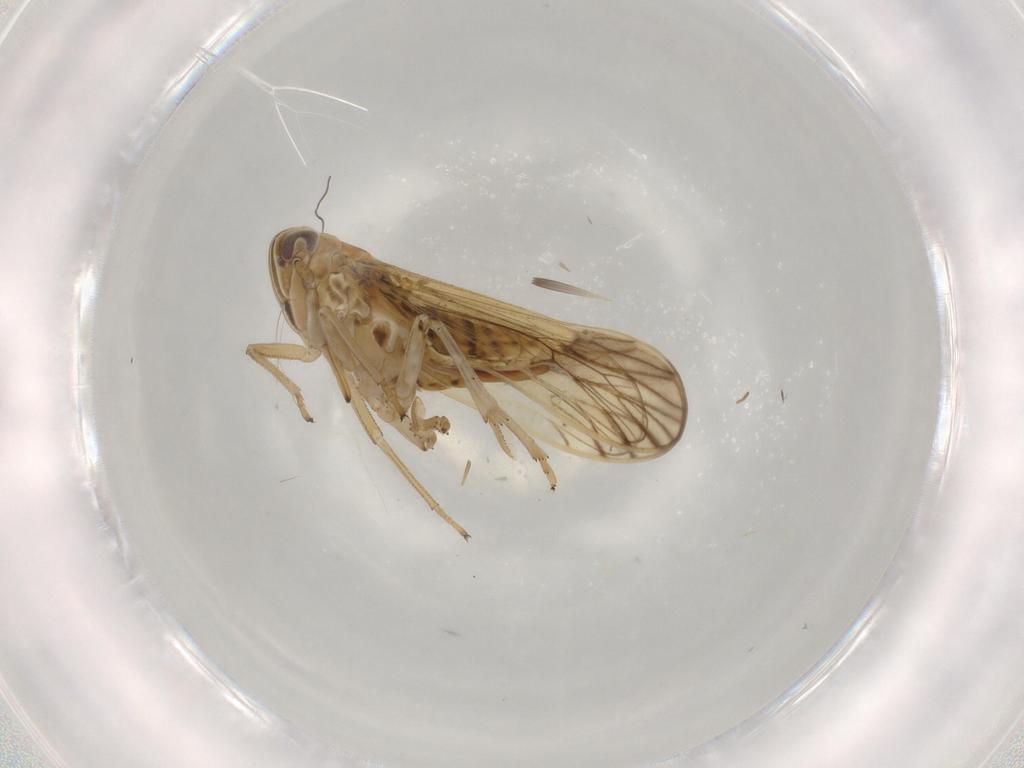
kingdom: Animalia
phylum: Arthropoda
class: Insecta
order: Hemiptera
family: Delphacidae
